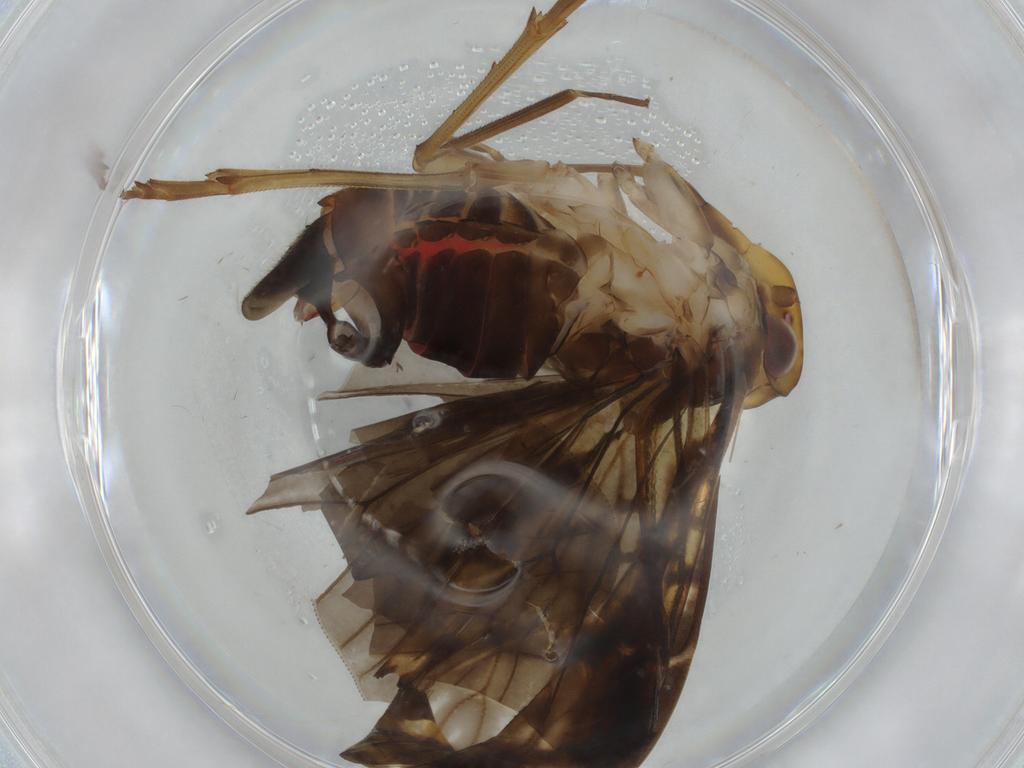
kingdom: Animalia
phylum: Arthropoda
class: Insecta
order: Hemiptera
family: Cixiidae
